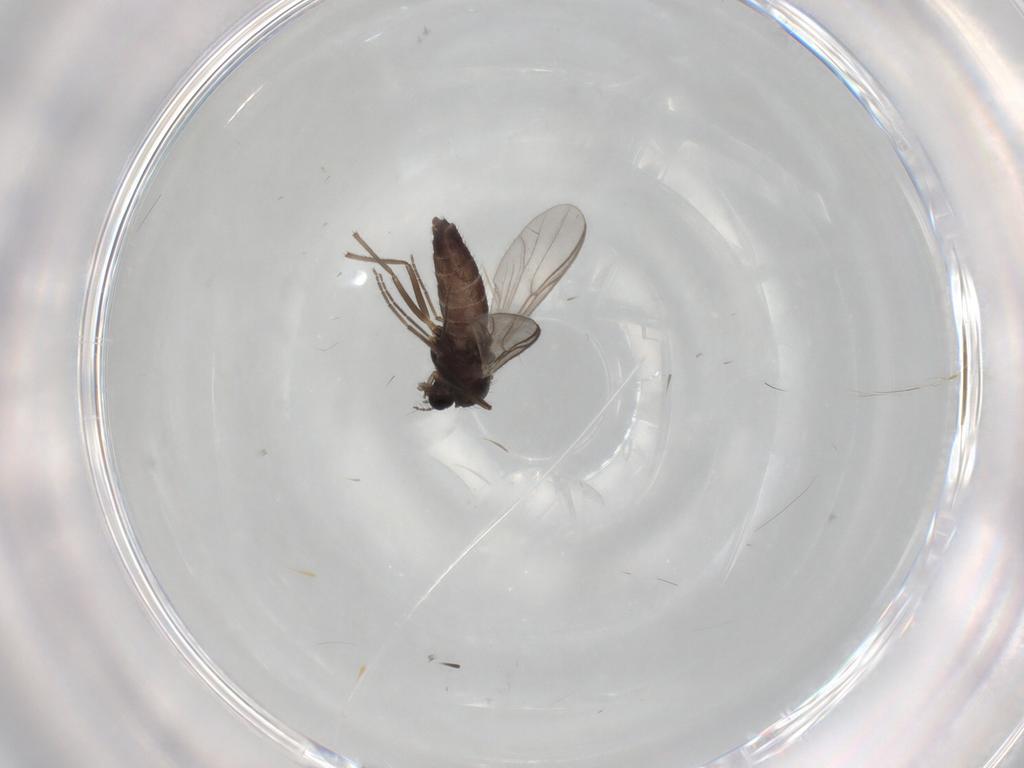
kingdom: Animalia
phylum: Arthropoda
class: Insecta
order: Diptera
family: Chironomidae
